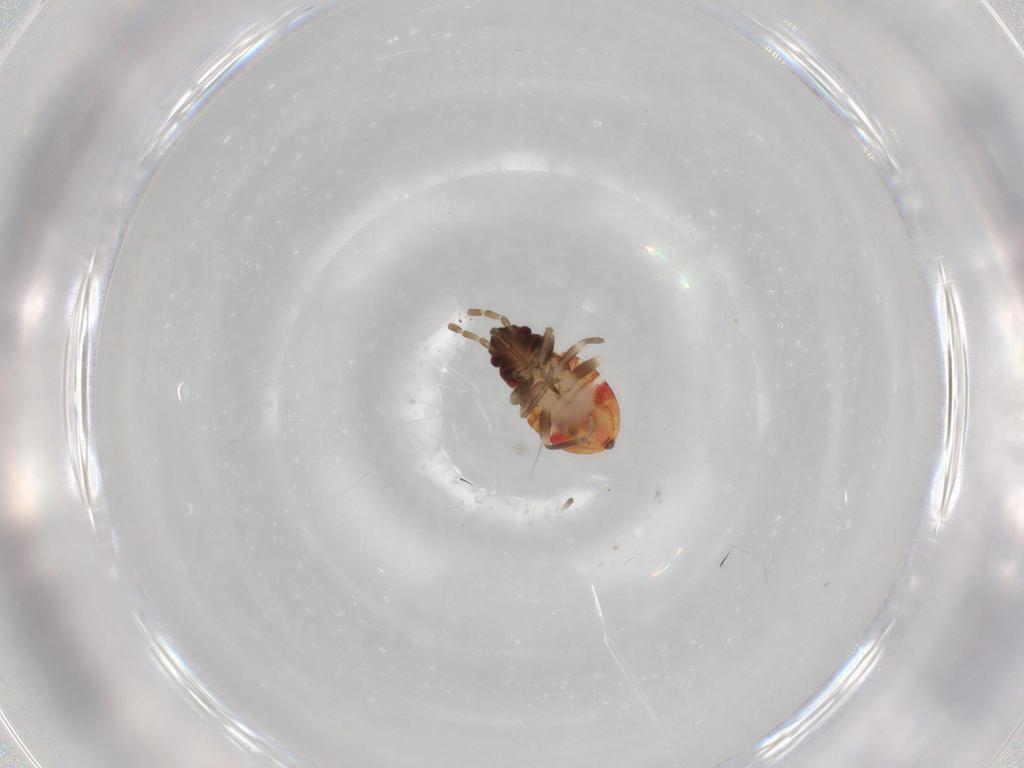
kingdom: Animalia
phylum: Arthropoda
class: Insecta
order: Hemiptera
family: Rhyparochromidae
